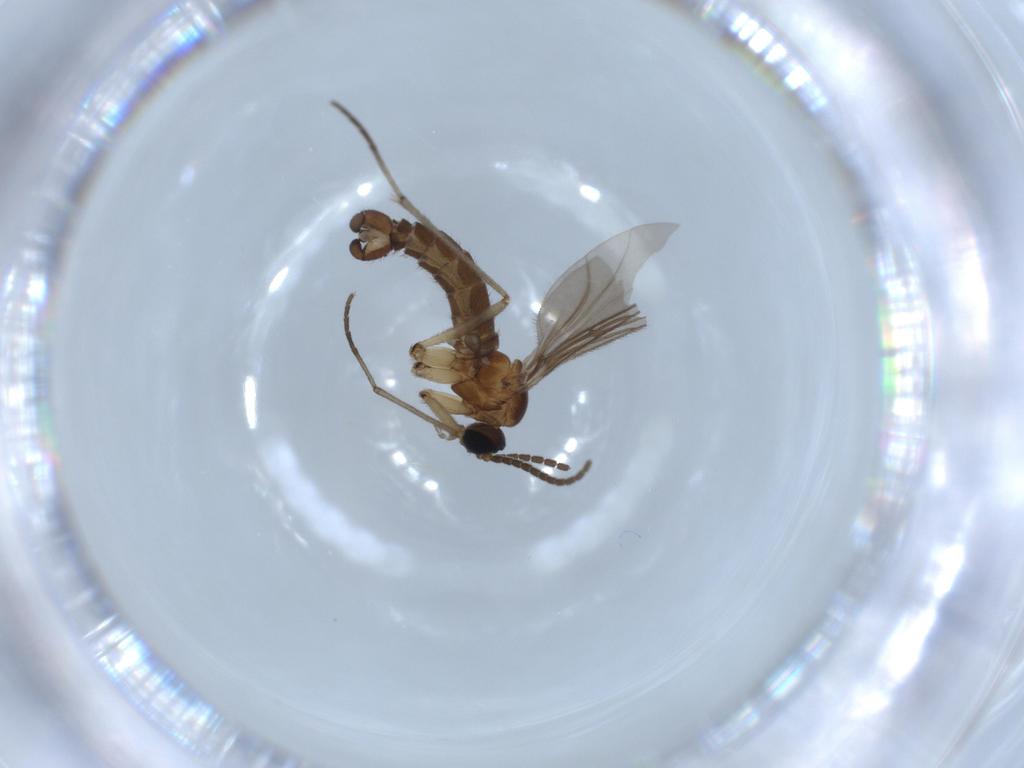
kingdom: Animalia
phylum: Arthropoda
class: Insecta
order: Diptera
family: Sciaridae
